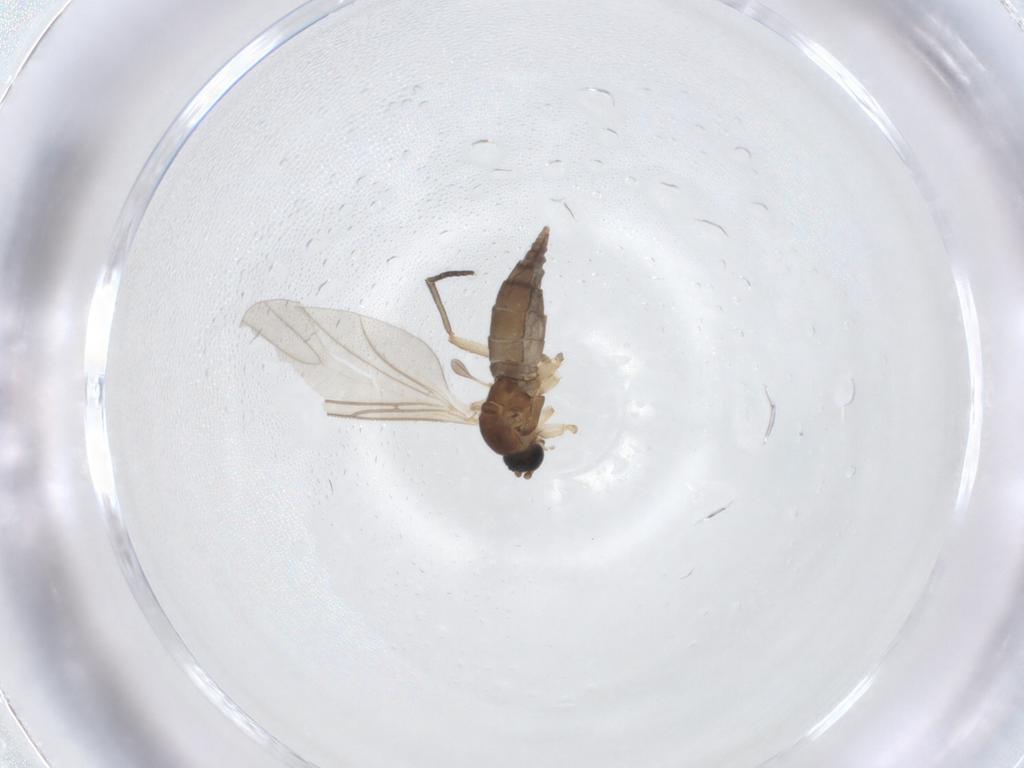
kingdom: Animalia
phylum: Arthropoda
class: Insecta
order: Diptera
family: Sciaridae
